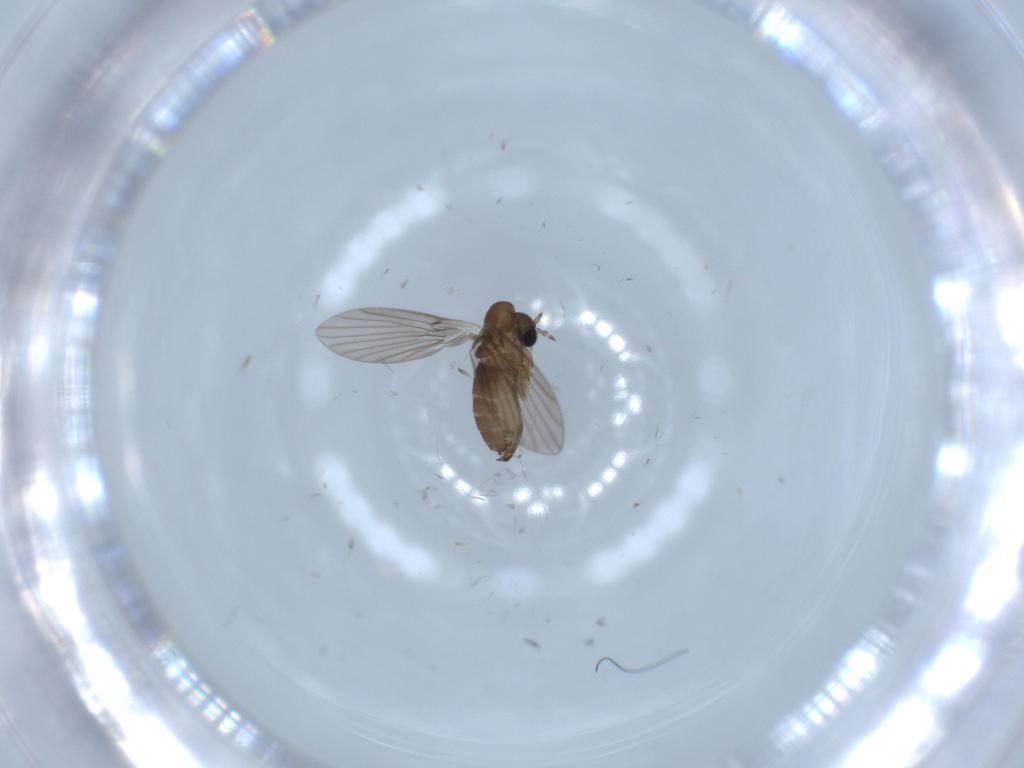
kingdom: Animalia
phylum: Arthropoda
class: Insecta
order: Diptera
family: Psychodidae
